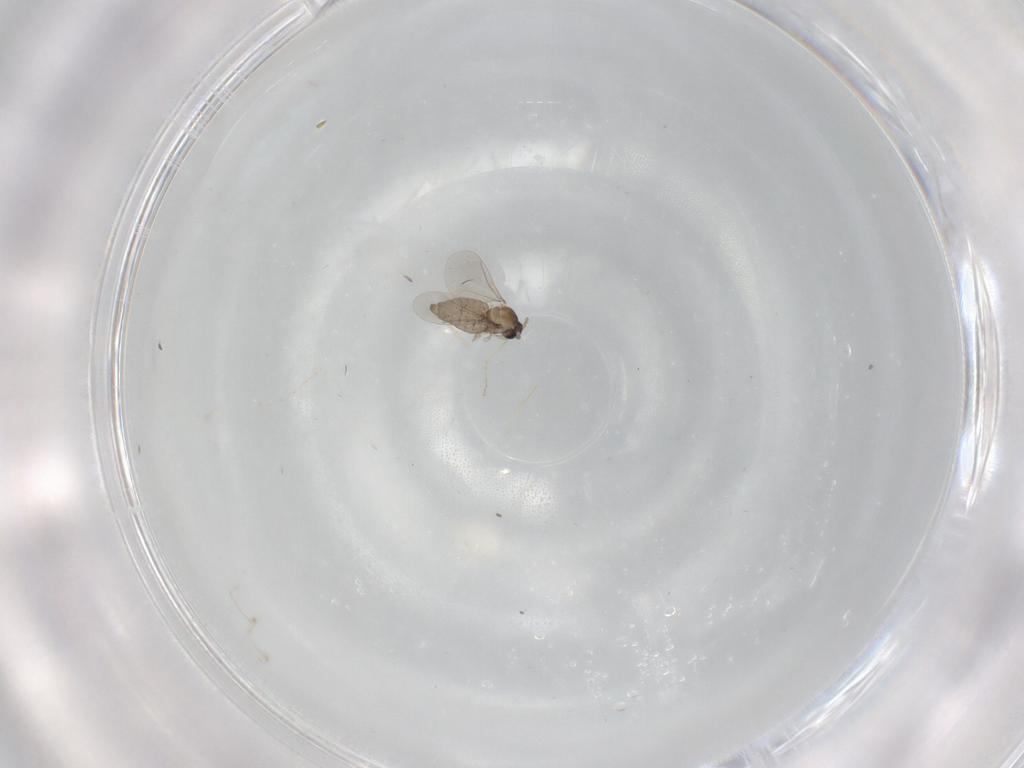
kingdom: Animalia
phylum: Arthropoda
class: Insecta
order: Diptera
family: Cecidomyiidae
